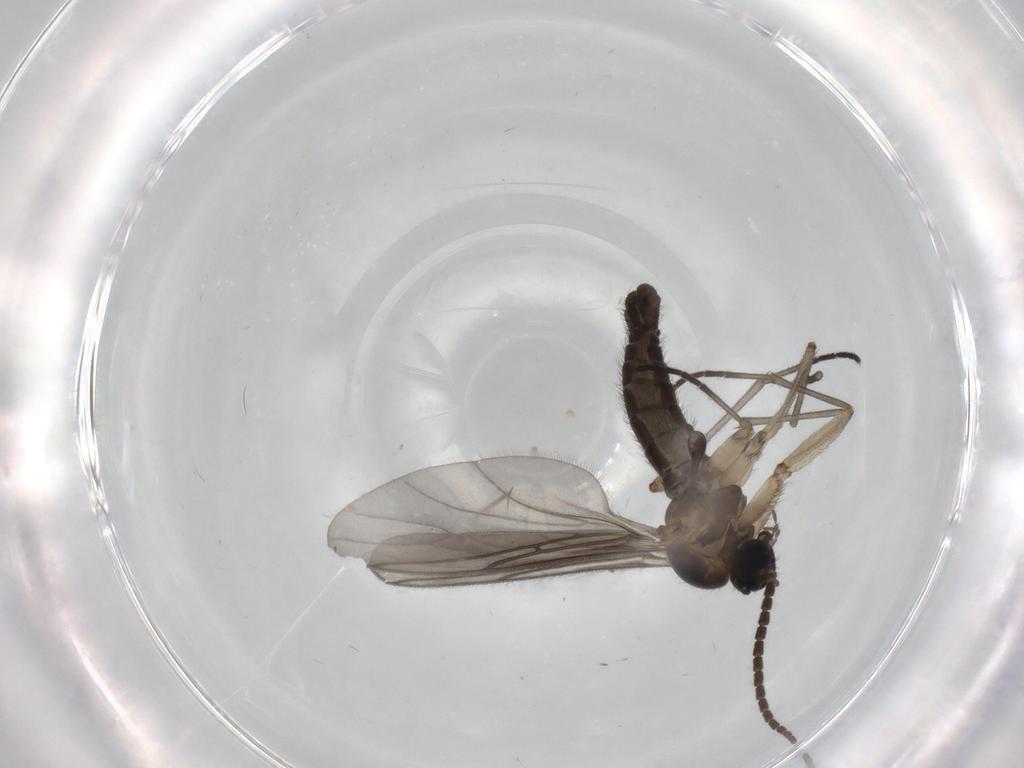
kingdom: Animalia
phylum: Arthropoda
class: Insecta
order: Diptera
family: Sciaridae
